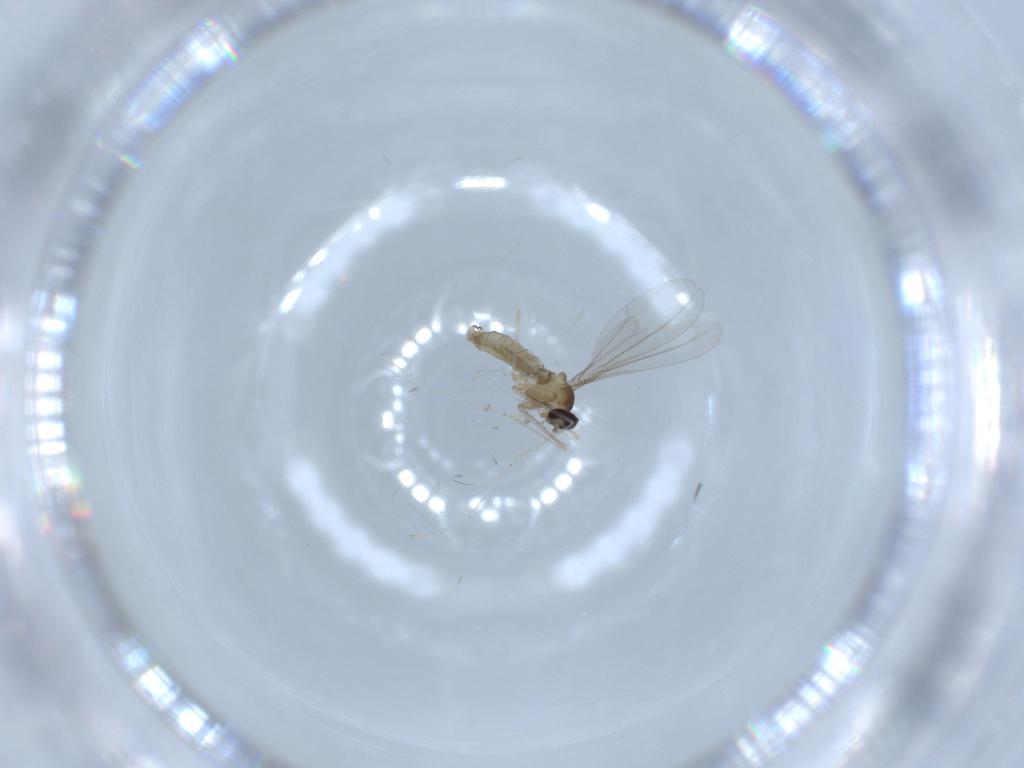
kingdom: Animalia
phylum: Arthropoda
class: Insecta
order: Diptera
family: Cecidomyiidae
